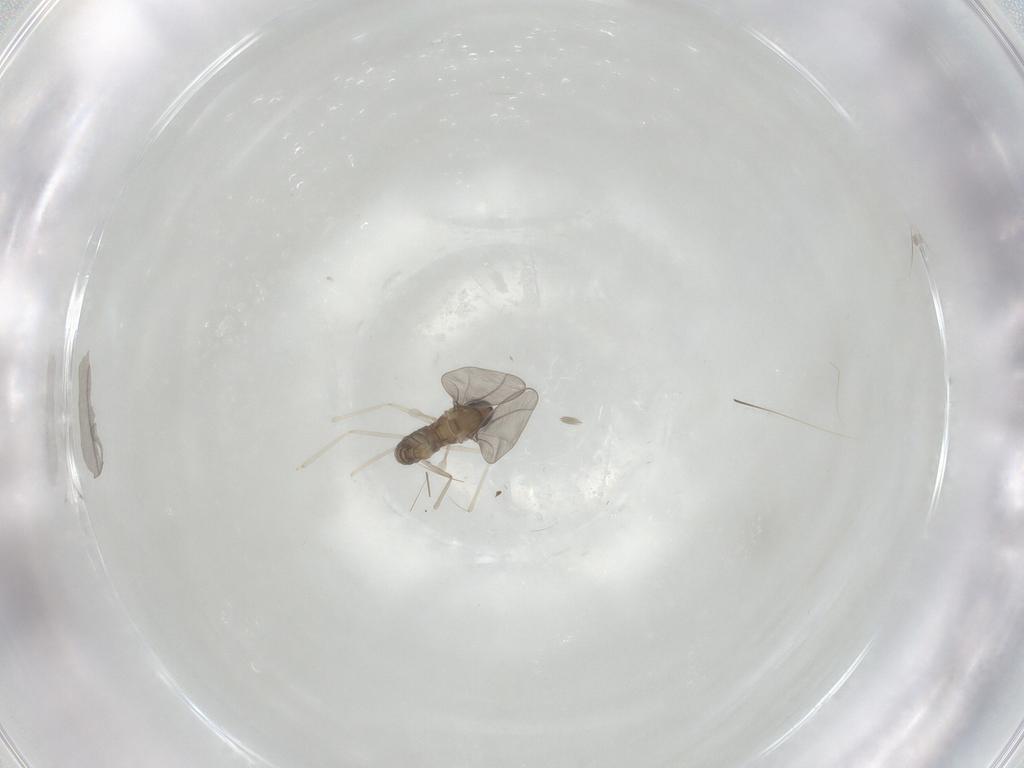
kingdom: Animalia
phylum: Arthropoda
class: Insecta
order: Diptera
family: Cecidomyiidae
